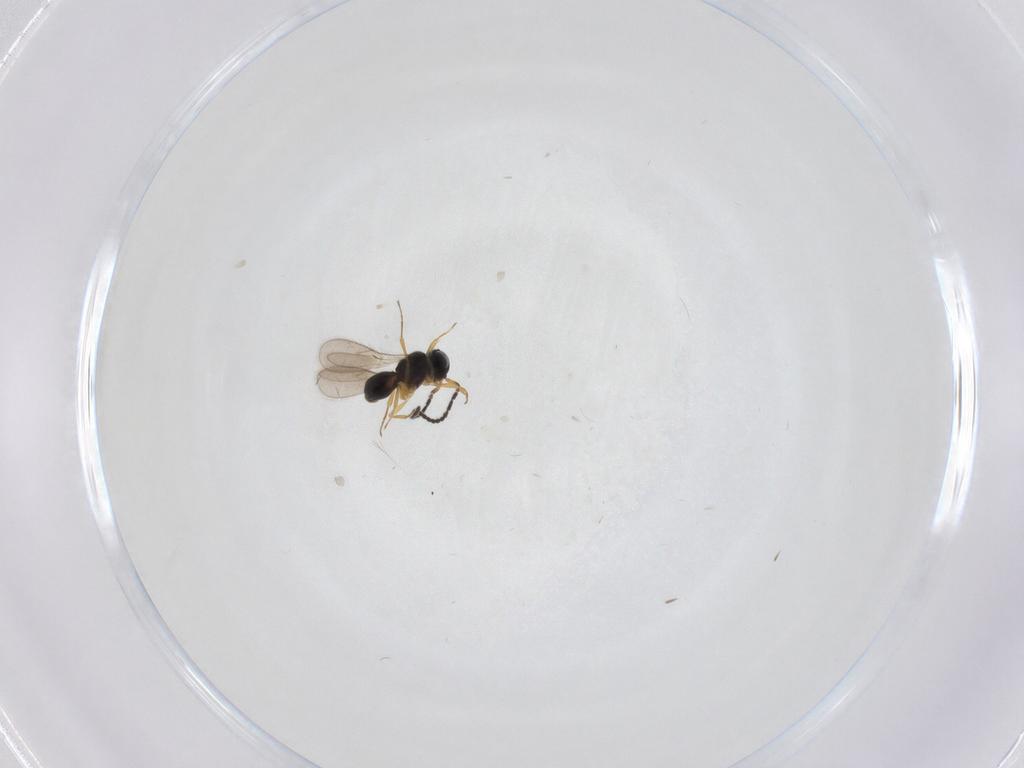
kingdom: Animalia
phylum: Arthropoda
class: Insecta
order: Hymenoptera
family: Scelionidae
